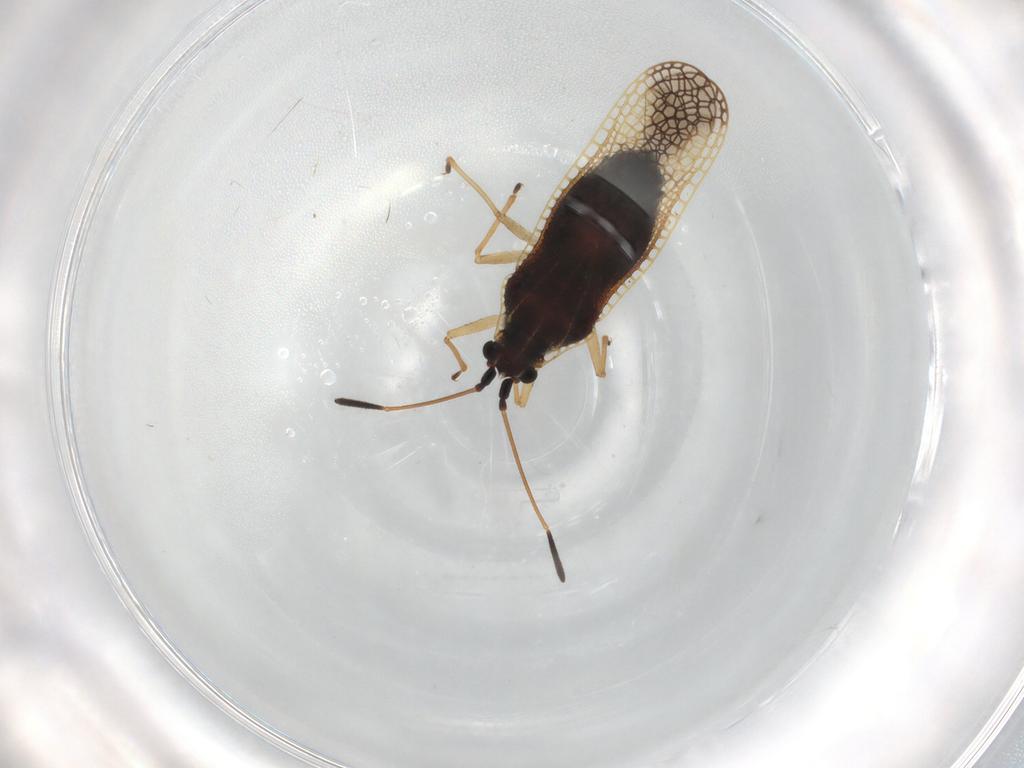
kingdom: Animalia
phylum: Arthropoda
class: Insecta
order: Hemiptera
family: Tingidae
